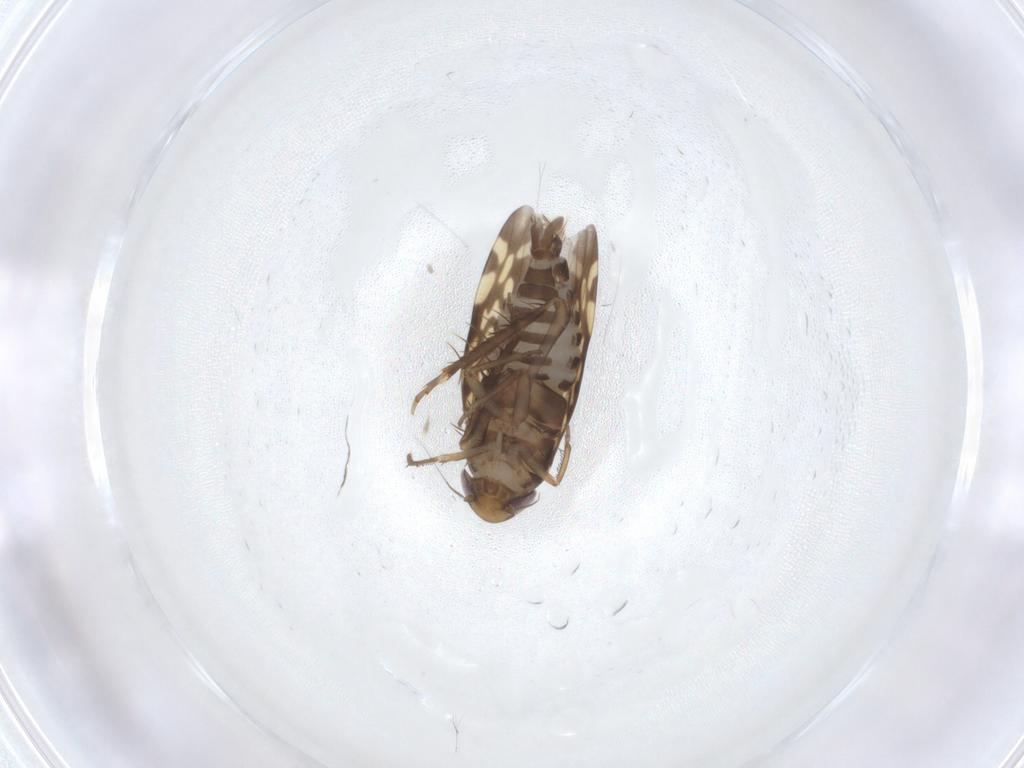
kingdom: Animalia
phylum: Arthropoda
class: Insecta
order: Hemiptera
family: Cicadellidae
